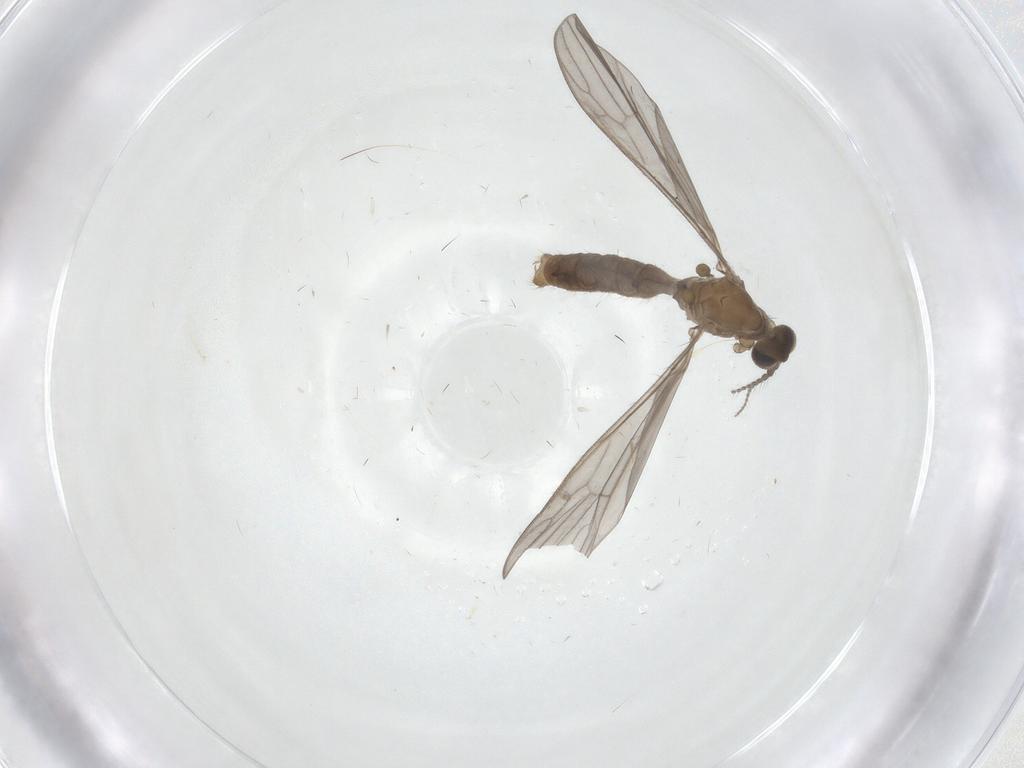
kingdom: Animalia
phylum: Arthropoda
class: Insecta
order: Diptera
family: Limoniidae
